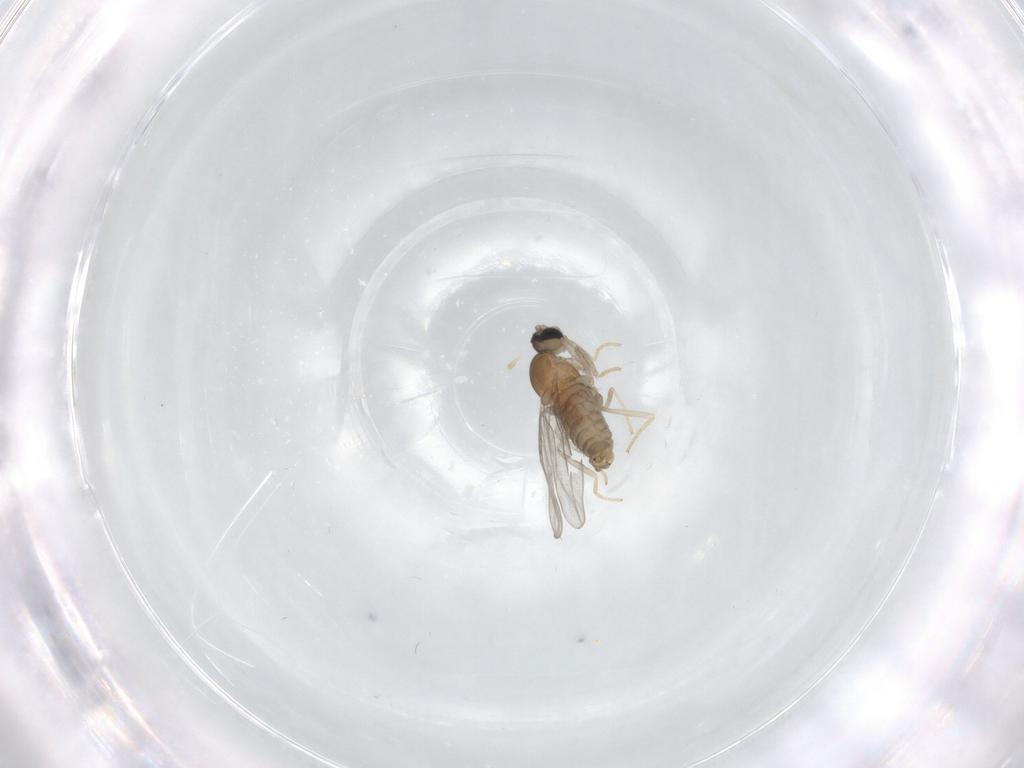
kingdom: Animalia
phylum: Arthropoda
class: Insecta
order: Diptera
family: Cecidomyiidae
